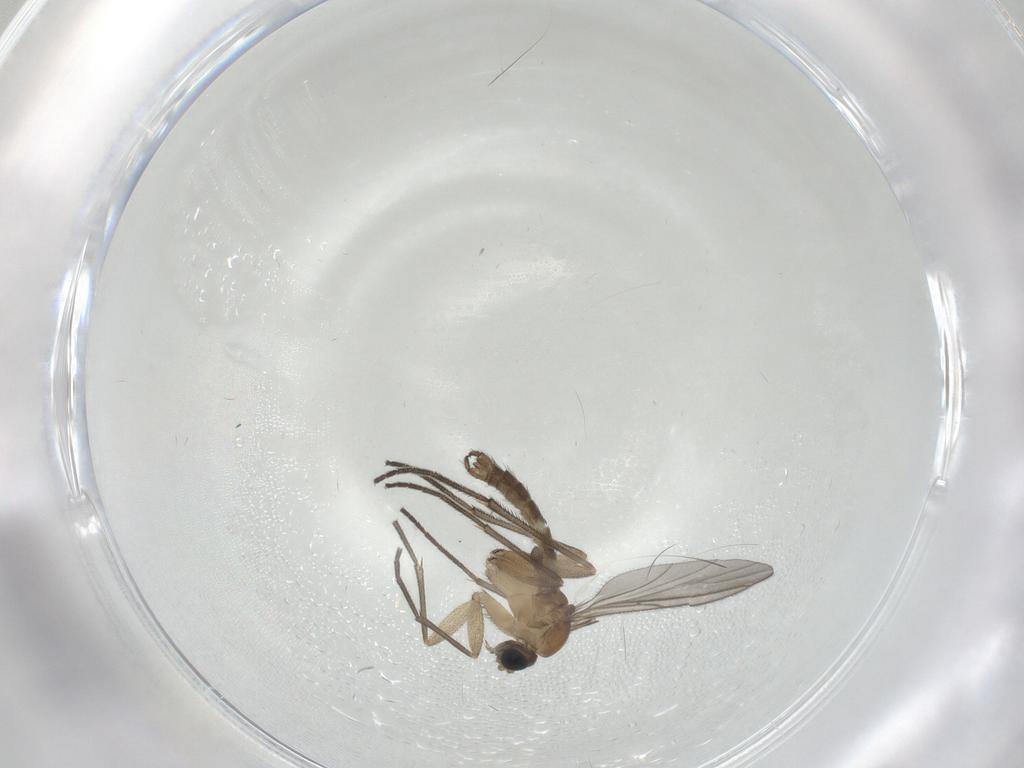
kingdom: Animalia
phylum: Arthropoda
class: Insecta
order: Diptera
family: Sciaridae
